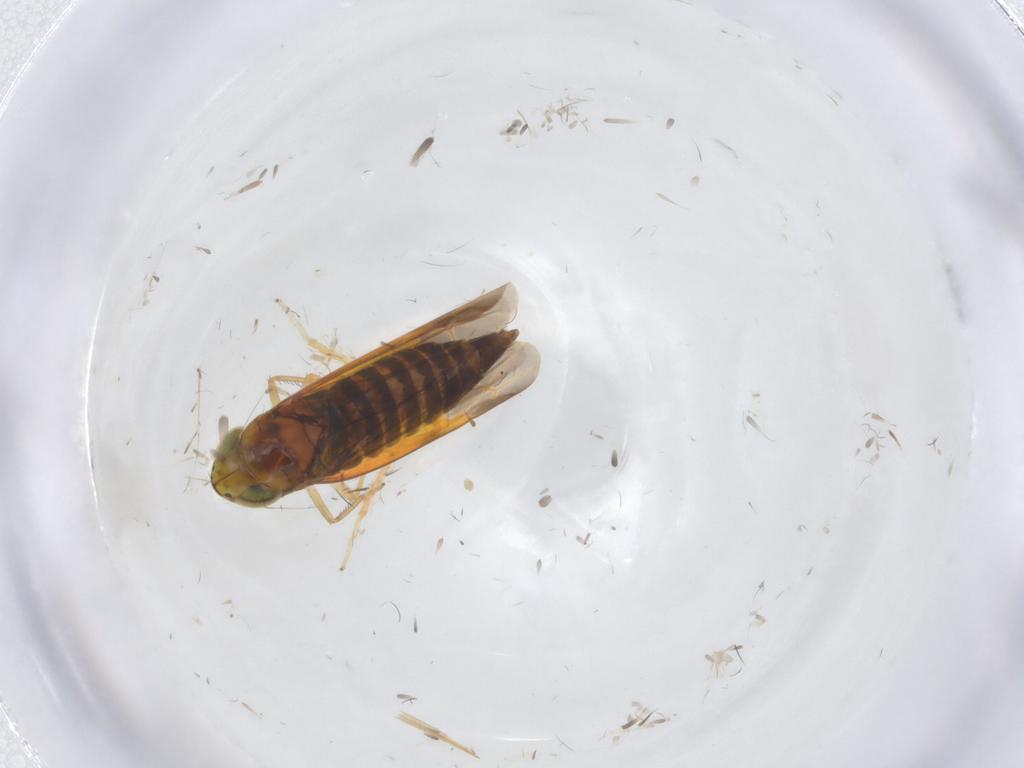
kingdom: Animalia
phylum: Arthropoda
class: Insecta
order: Hemiptera
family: Cicadellidae
